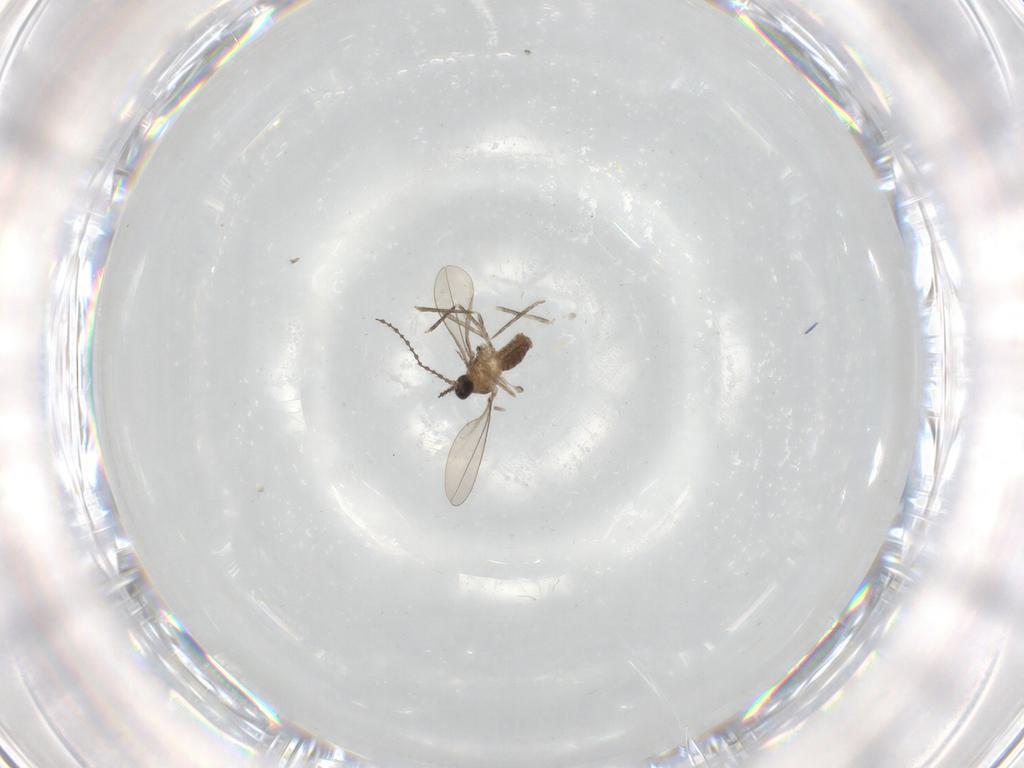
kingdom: Animalia
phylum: Arthropoda
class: Insecta
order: Diptera
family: Cecidomyiidae
